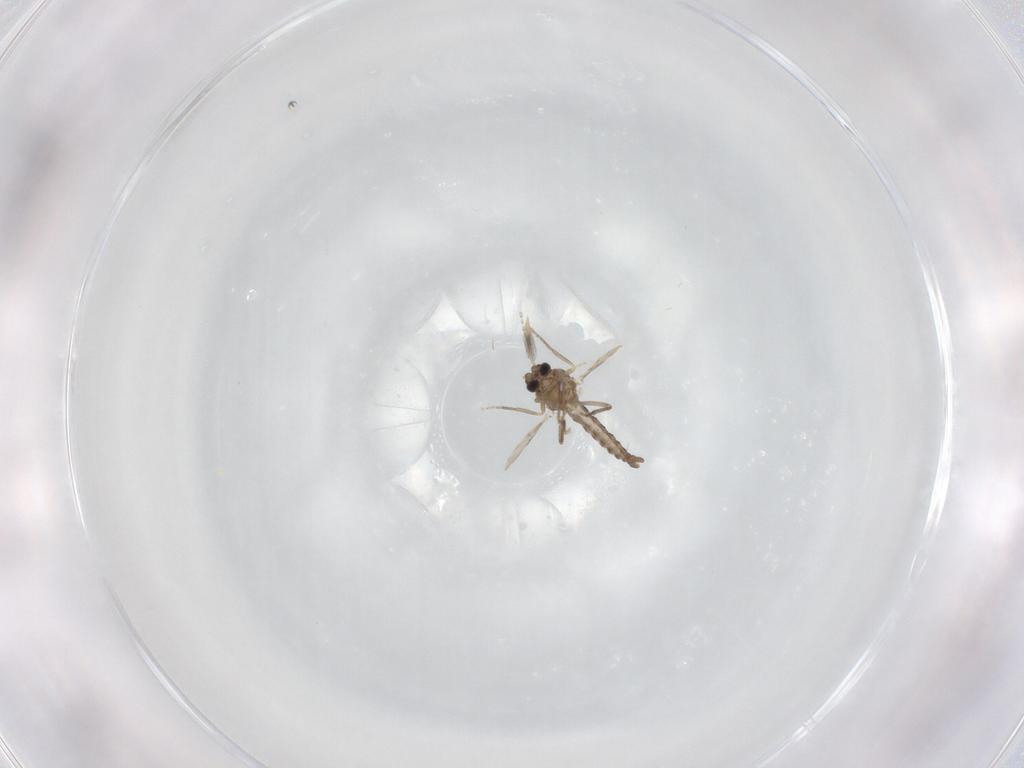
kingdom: Animalia
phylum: Arthropoda
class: Insecta
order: Diptera
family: Ceratopogonidae
